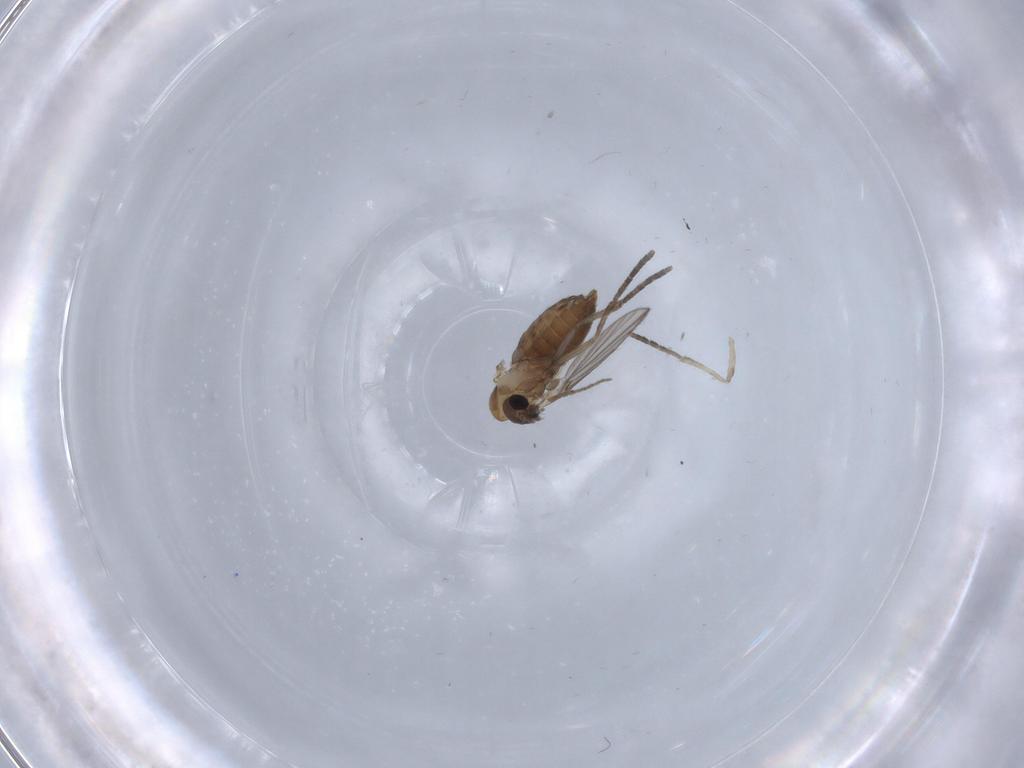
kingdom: Animalia
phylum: Arthropoda
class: Insecta
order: Diptera
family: Chironomidae
